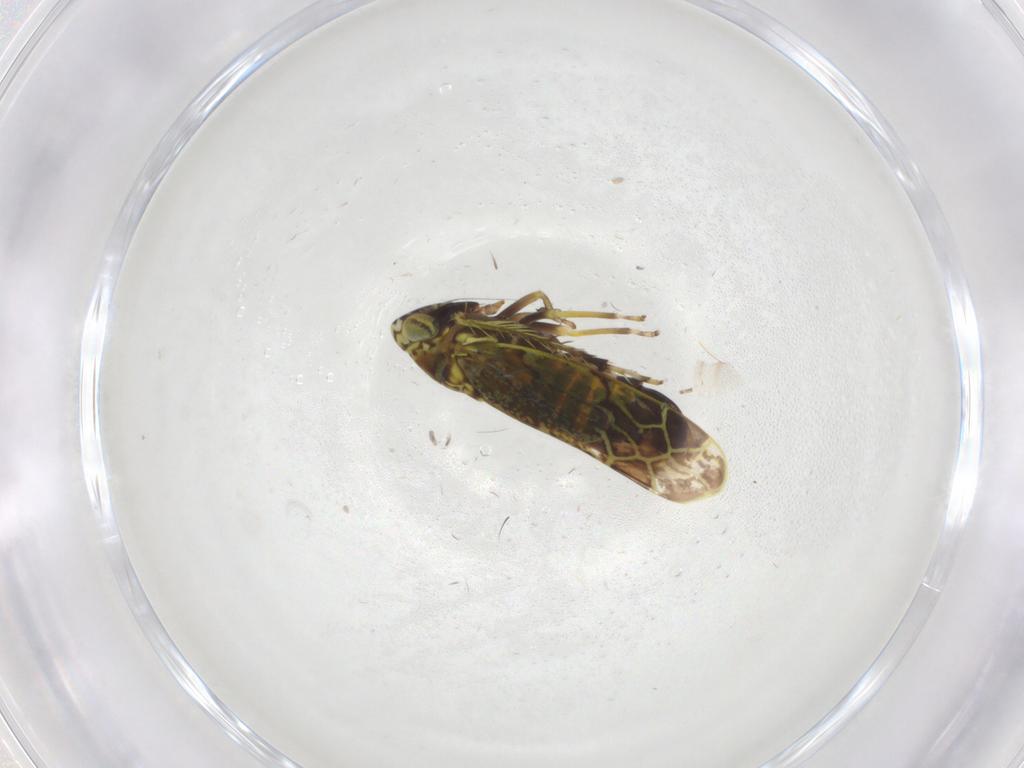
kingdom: Animalia
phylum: Arthropoda
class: Insecta
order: Hemiptera
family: Cicadellidae
